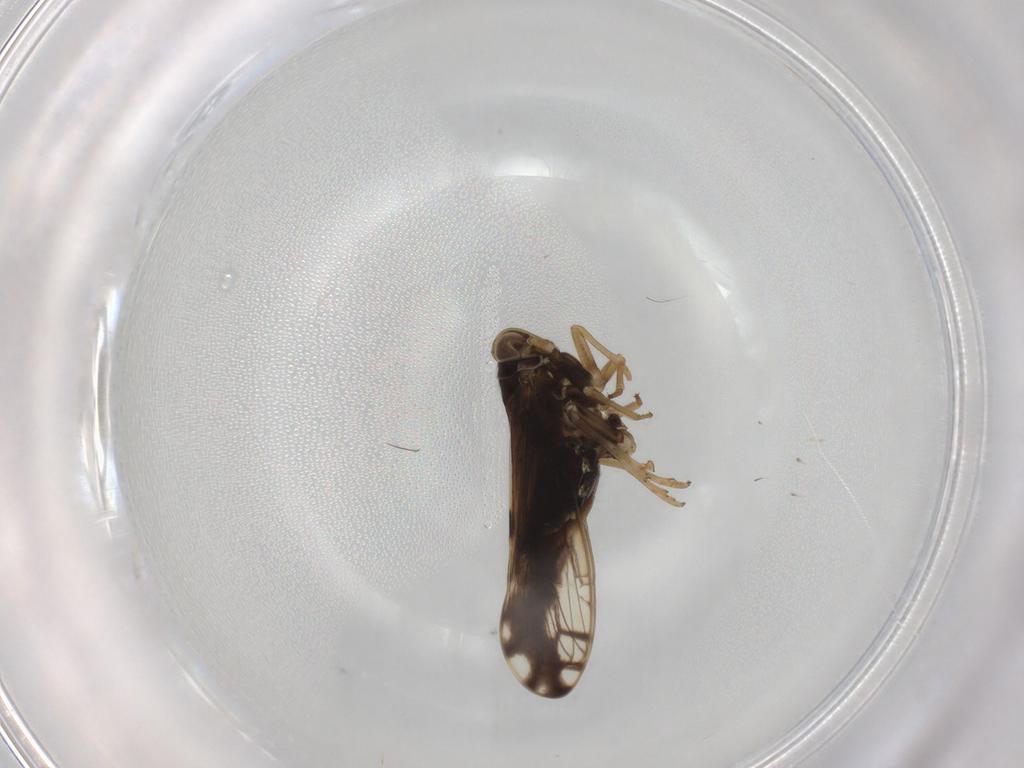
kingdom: Animalia
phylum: Arthropoda
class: Insecta
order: Hemiptera
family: Delphacidae
